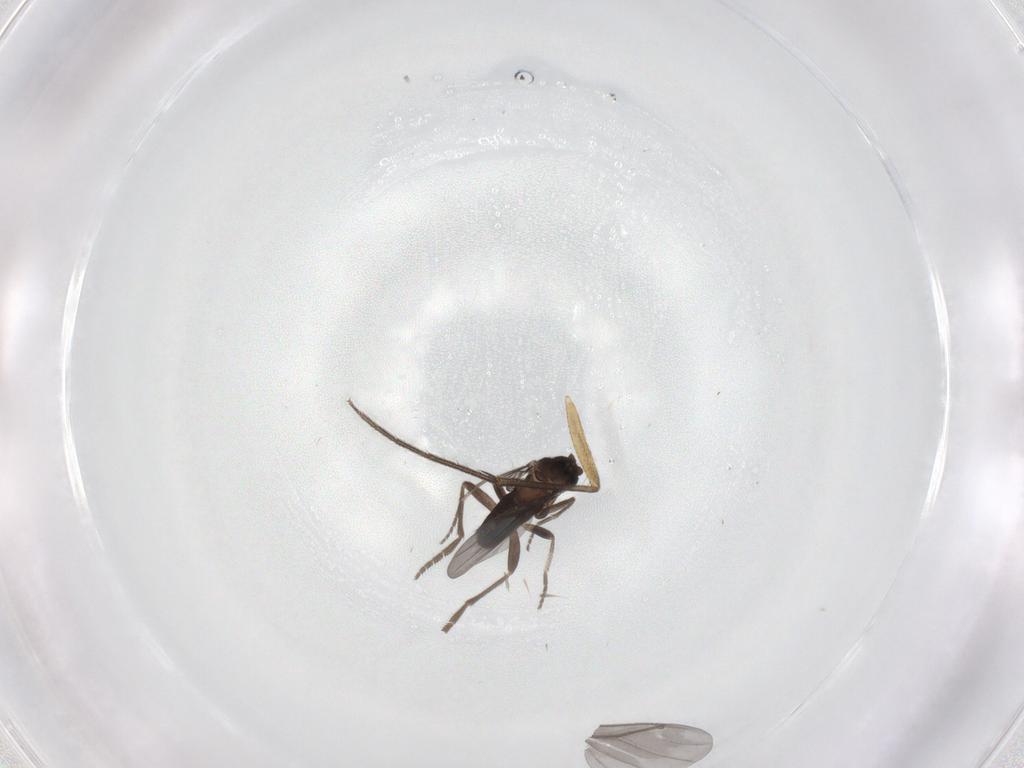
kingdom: Animalia
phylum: Arthropoda
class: Insecta
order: Diptera
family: Phoridae
